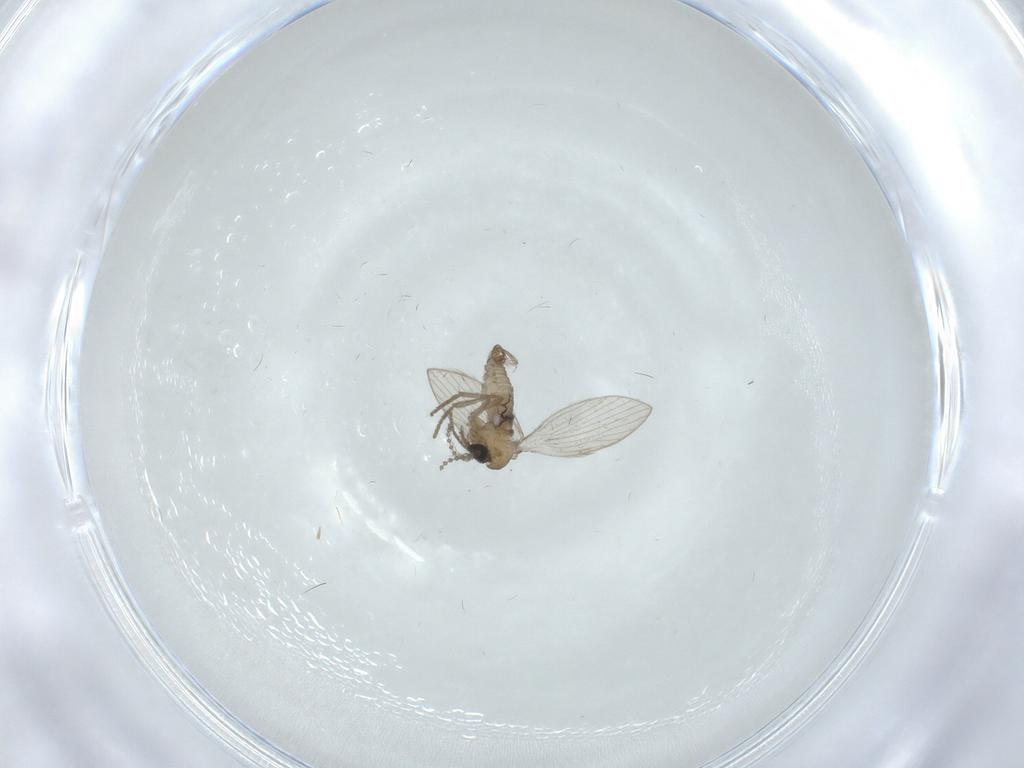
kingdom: Animalia
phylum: Arthropoda
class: Insecta
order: Diptera
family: Psychodidae
